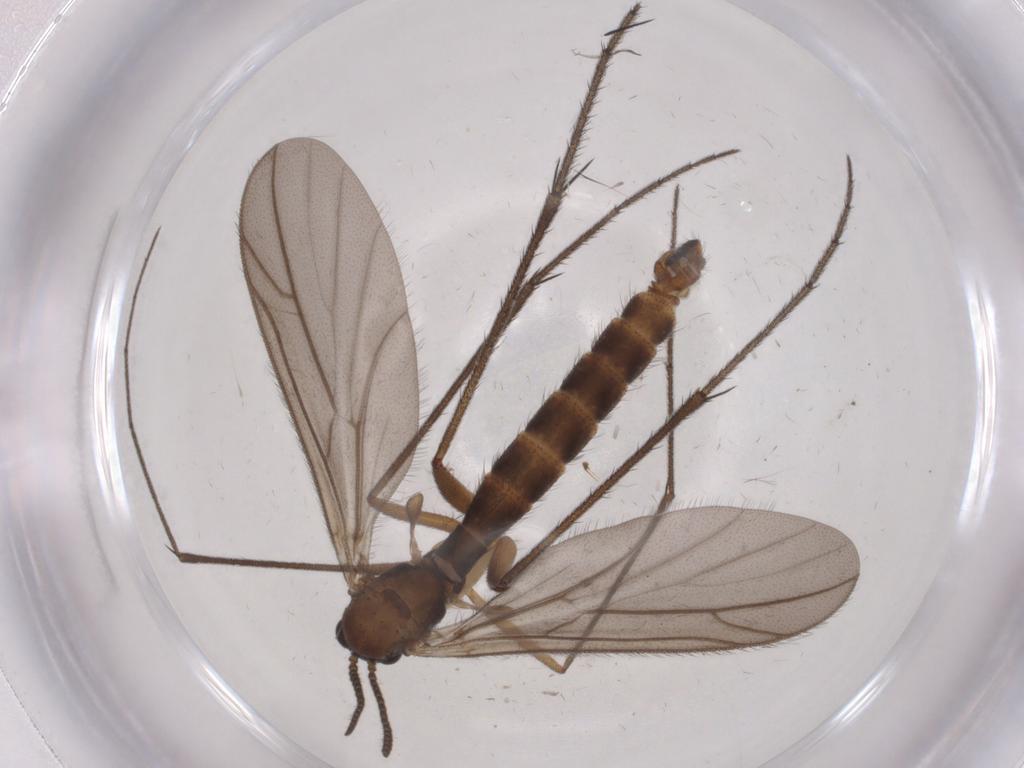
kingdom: Animalia
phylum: Arthropoda
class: Insecta
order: Diptera
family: Ditomyiidae
